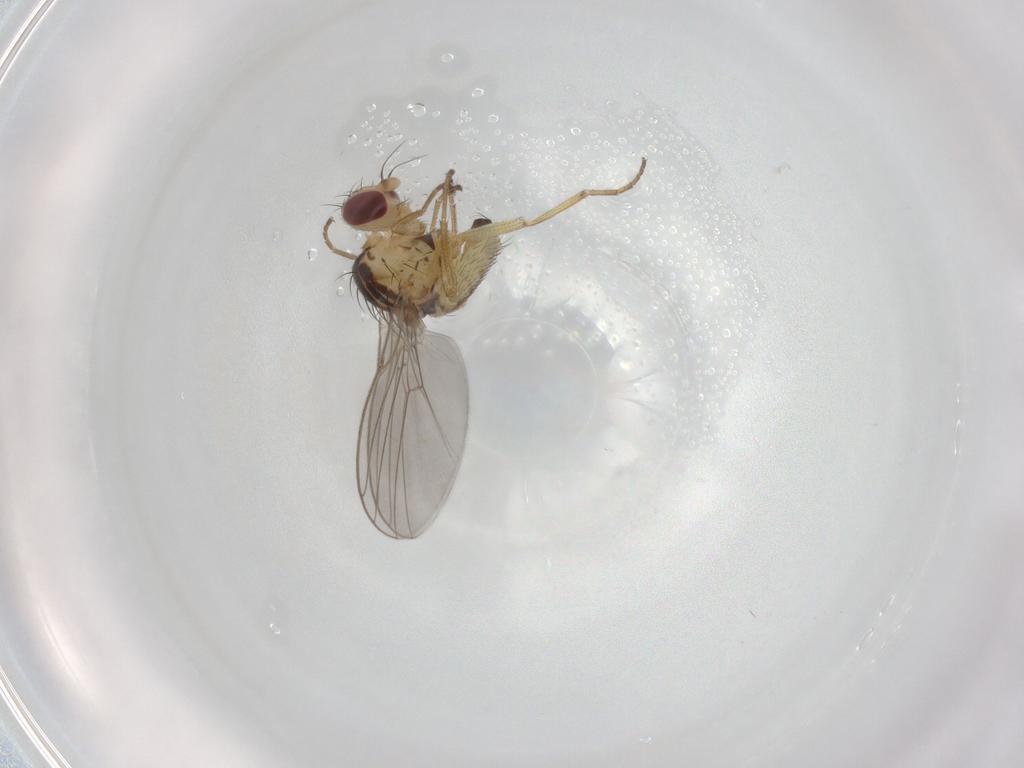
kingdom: Animalia
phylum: Arthropoda
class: Insecta
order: Diptera
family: Agromyzidae
